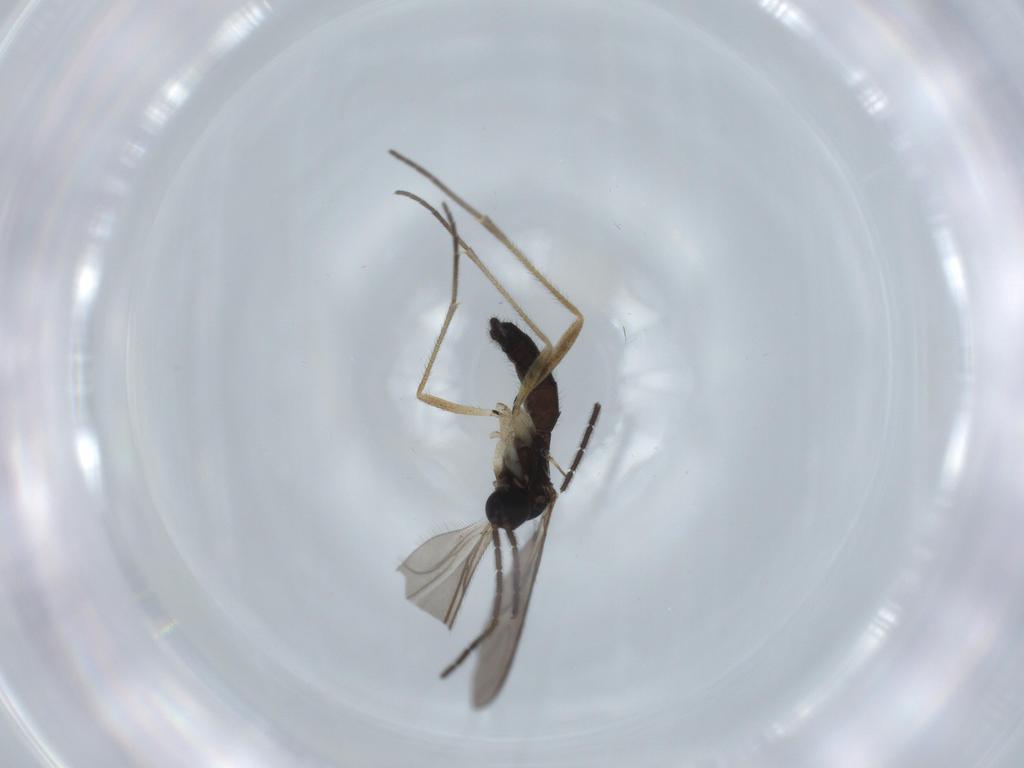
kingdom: Animalia
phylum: Arthropoda
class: Insecta
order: Diptera
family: Sciaridae
